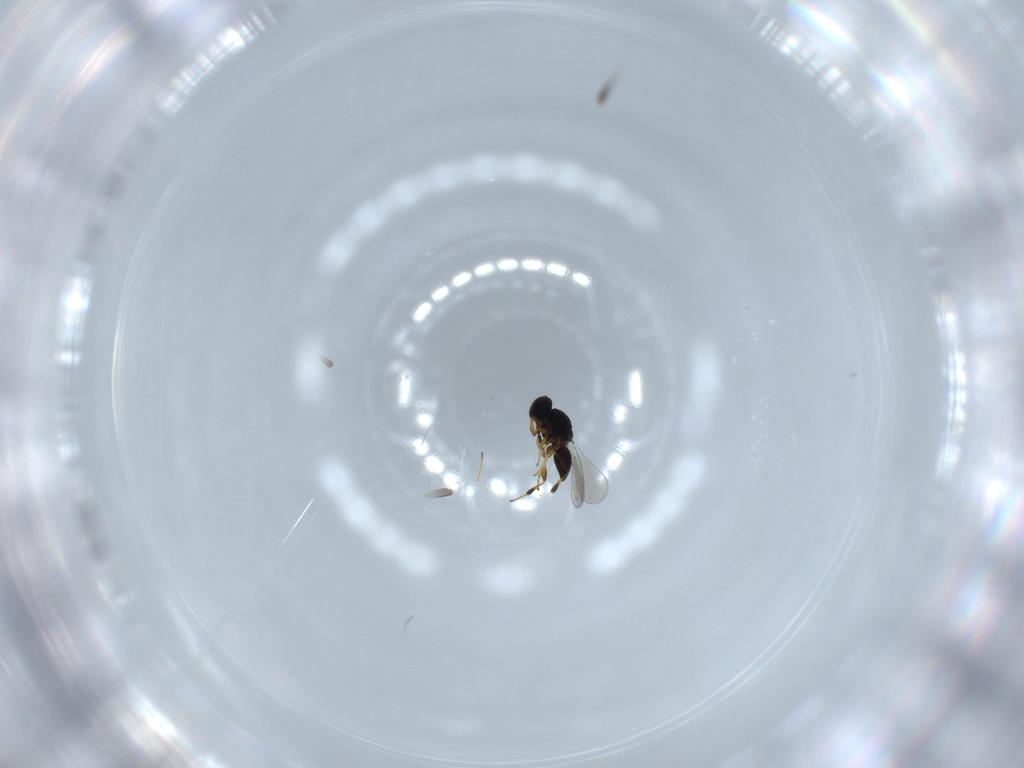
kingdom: Animalia
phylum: Arthropoda
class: Insecta
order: Hymenoptera
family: Platygastridae
